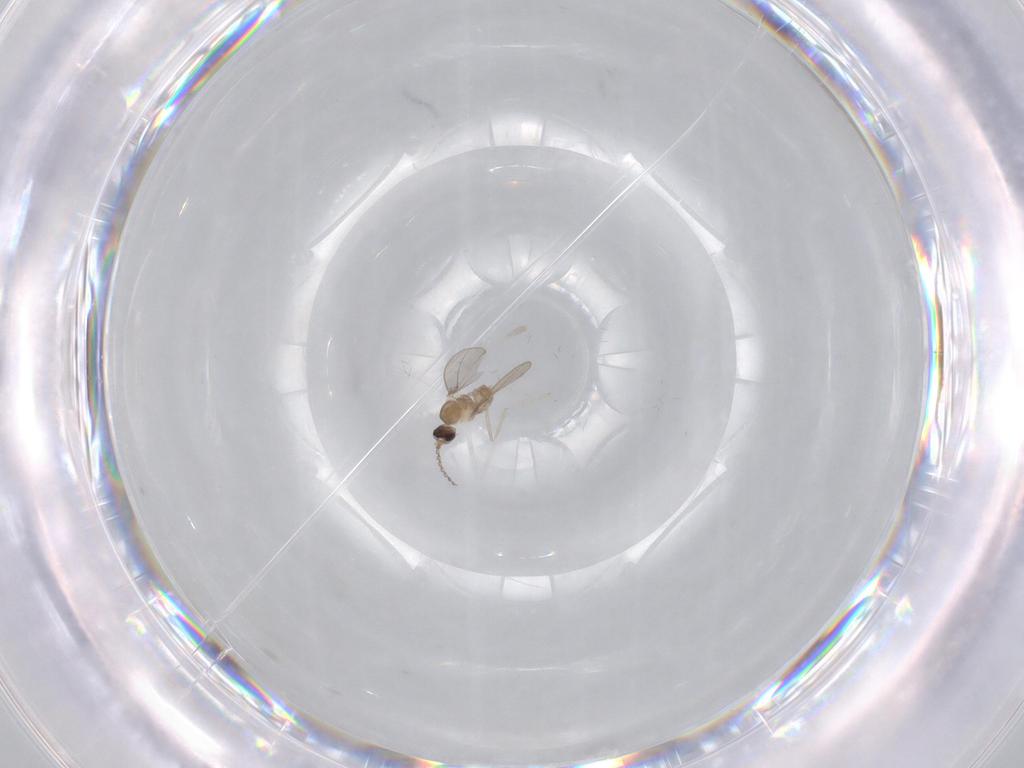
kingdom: Animalia
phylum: Arthropoda
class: Insecta
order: Diptera
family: Cecidomyiidae
